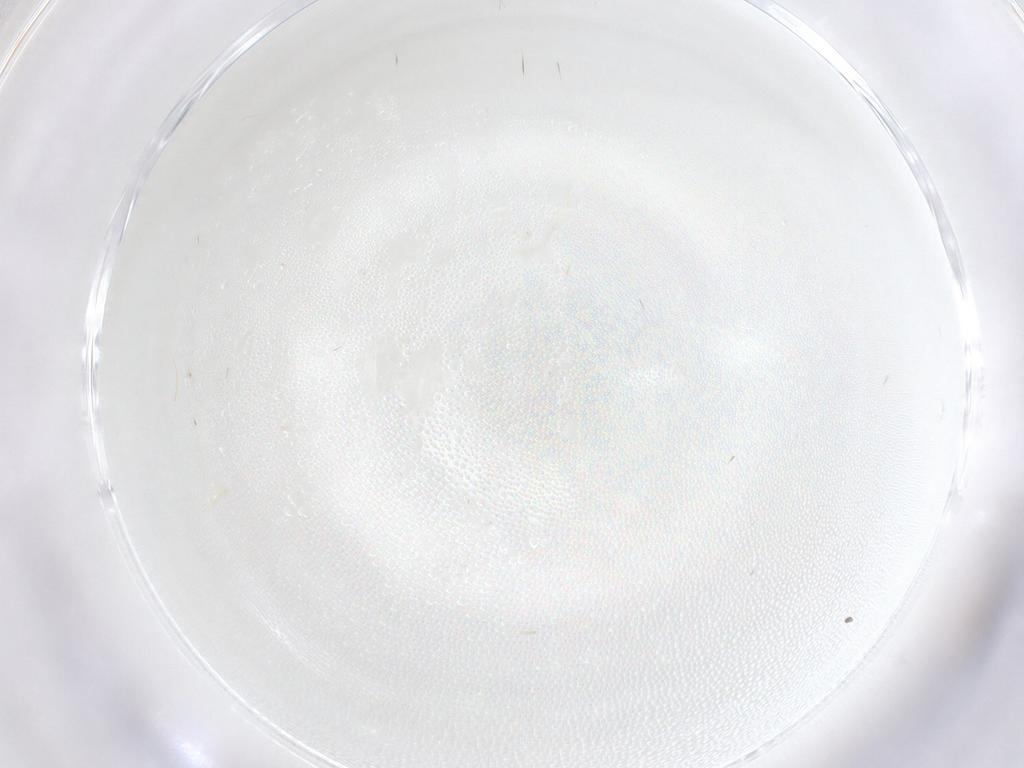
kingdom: Animalia
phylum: Arthropoda
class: Insecta
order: Diptera
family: Cecidomyiidae
